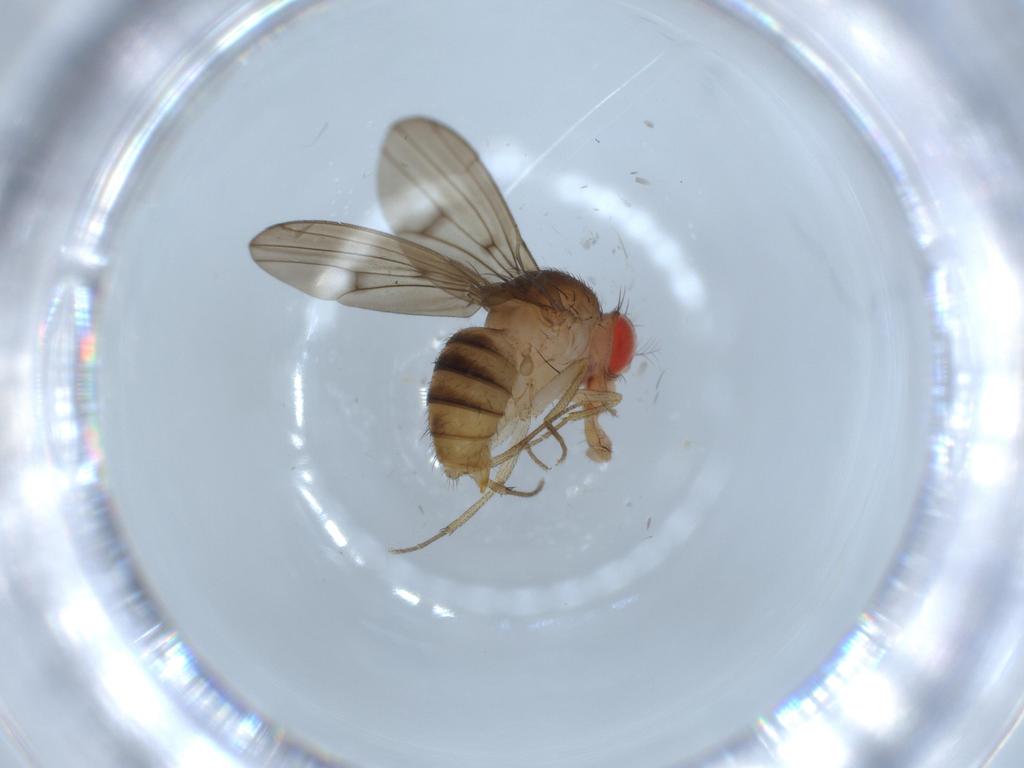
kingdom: Animalia
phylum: Arthropoda
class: Insecta
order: Diptera
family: Drosophilidae
